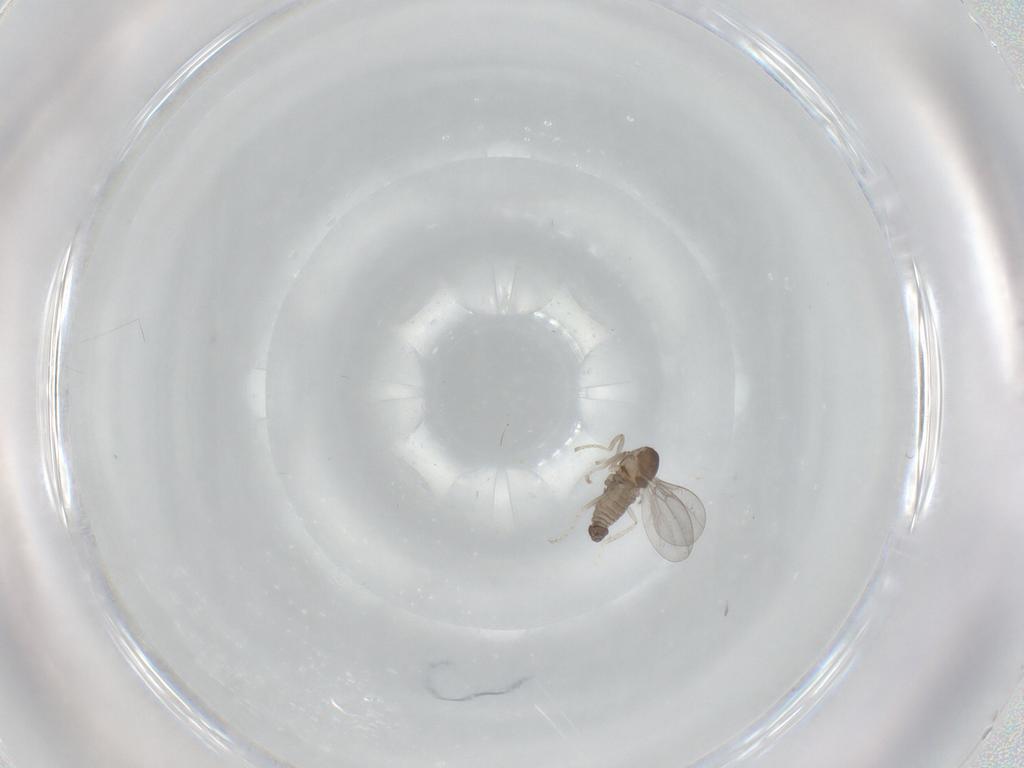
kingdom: Animalia
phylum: Arthropoda
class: Insecta
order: Diptera
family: Cecidomyiidae
